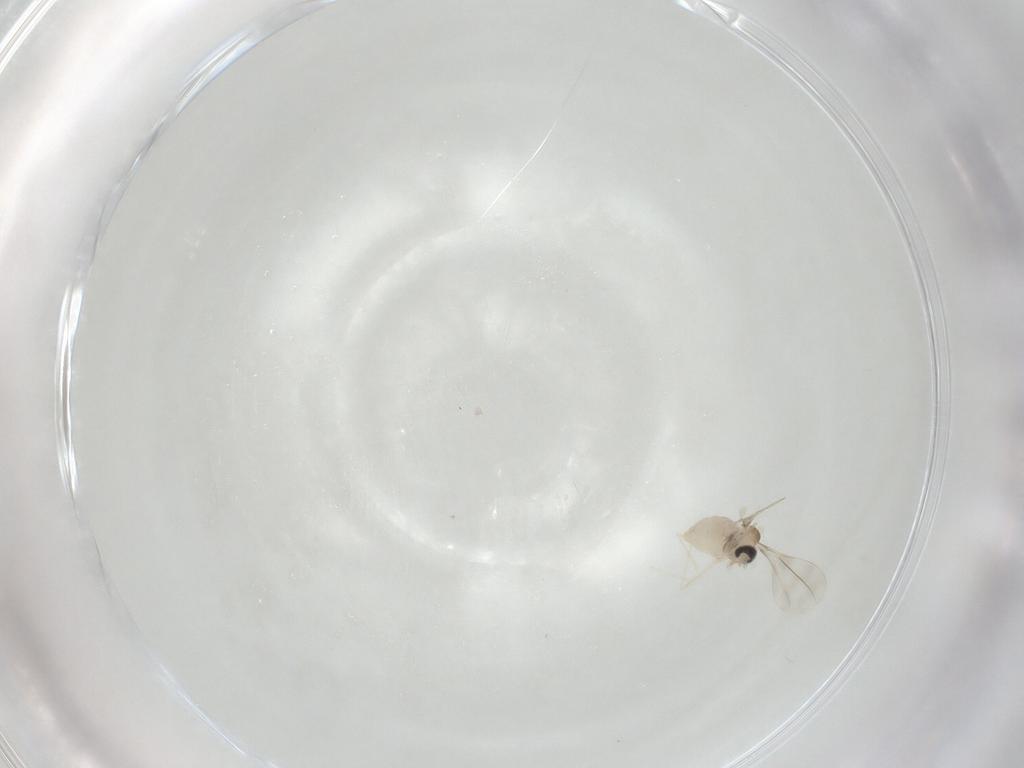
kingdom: Animalia
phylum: Arthropoda
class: Insecta
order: Diptera
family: Cecidomyiidae
